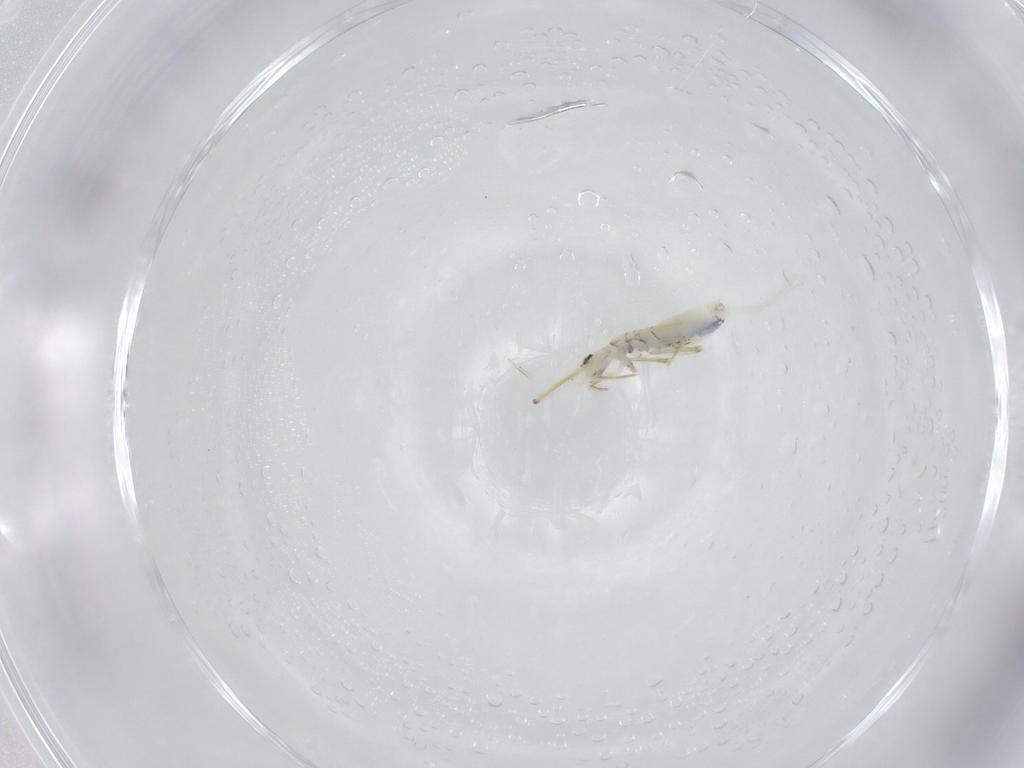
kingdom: Animalia
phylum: Arthropoda
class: Collembola
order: Entomobryomorpha
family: Paronellidae
